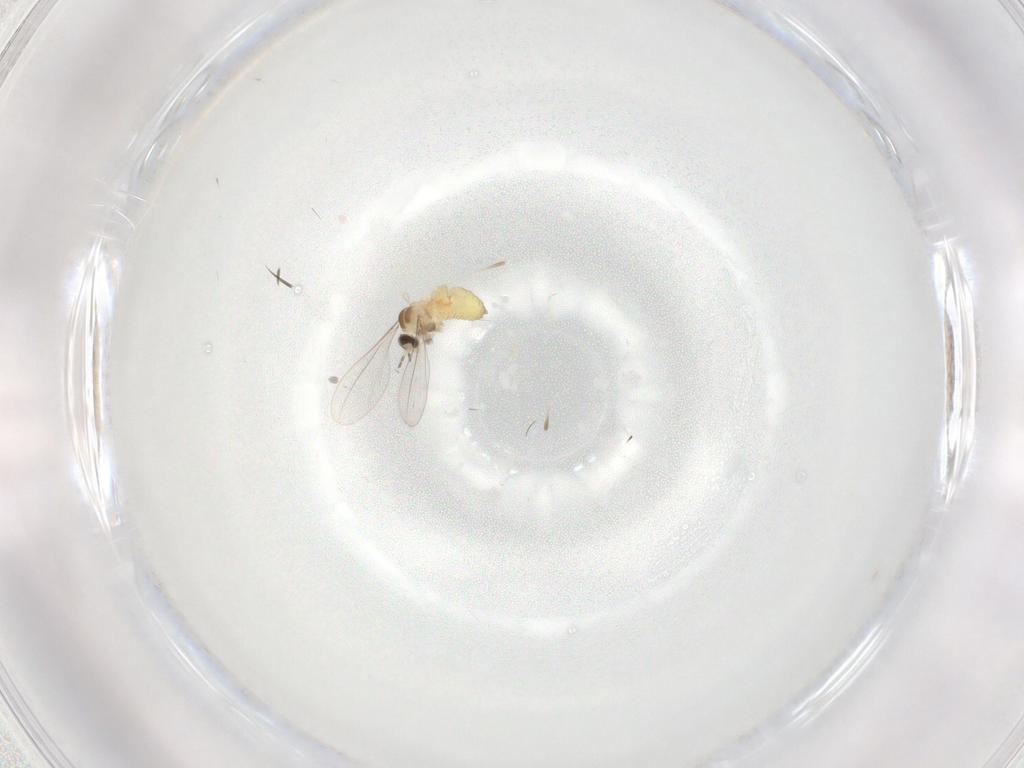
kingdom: Animalia
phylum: Arthropoda
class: Insecta
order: Diptera
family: Cecidomyiidae
